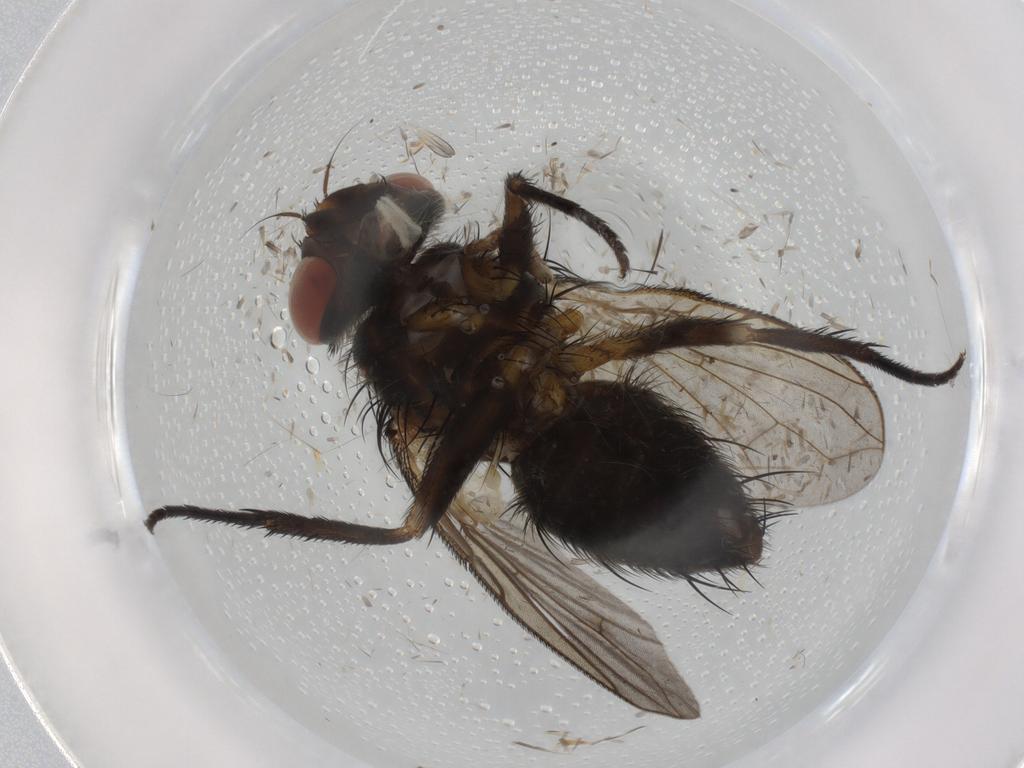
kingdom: Animalia
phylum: Arthropoda
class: Insecta
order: Diptera
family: Tachinidae
